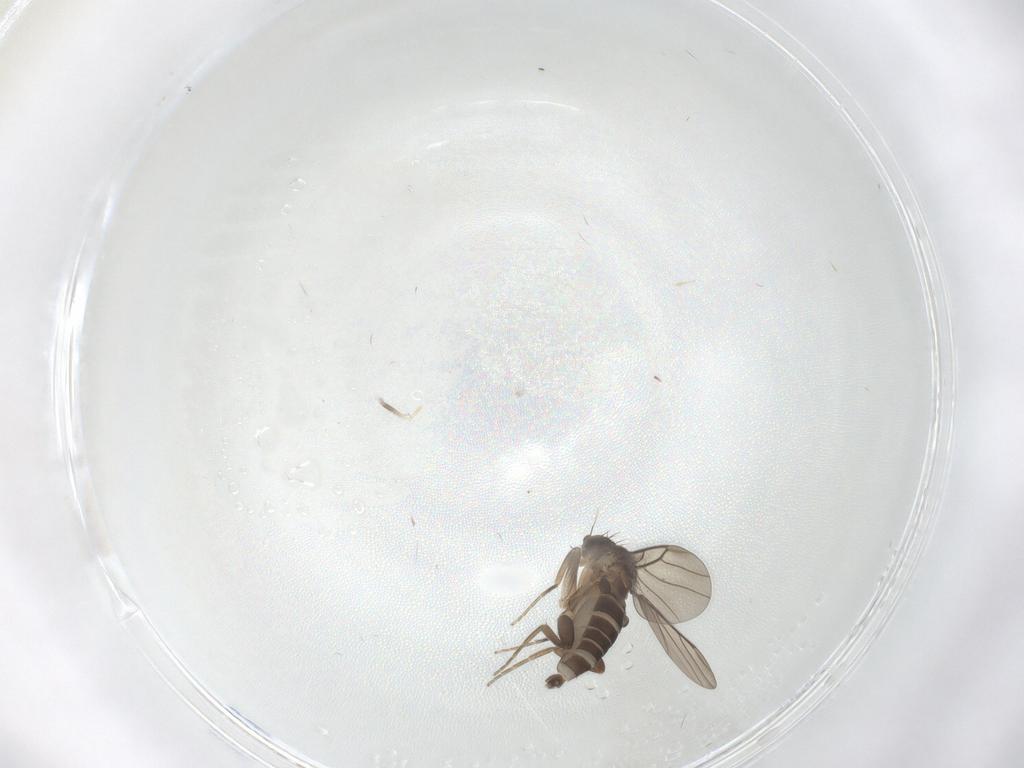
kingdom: Animalia
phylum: Arthropoda
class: Insecta
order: Diptera
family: Phoridae
